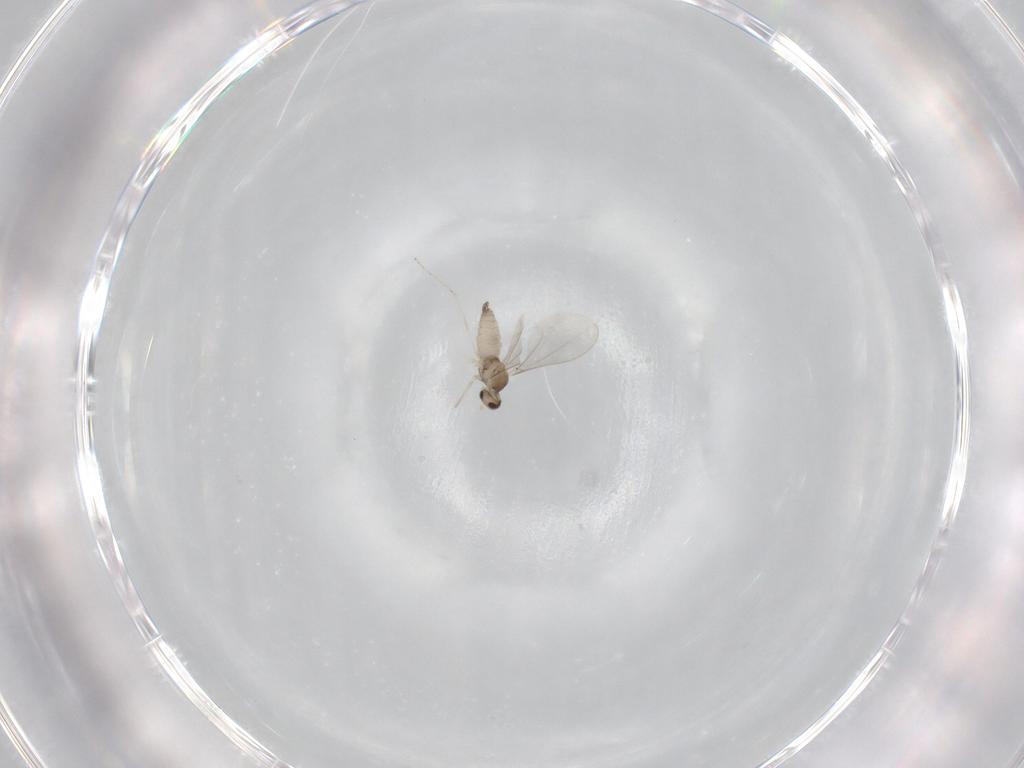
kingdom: Animalia
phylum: Arthropoda
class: Insecta
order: Diptera
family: Cecidomyiidae
